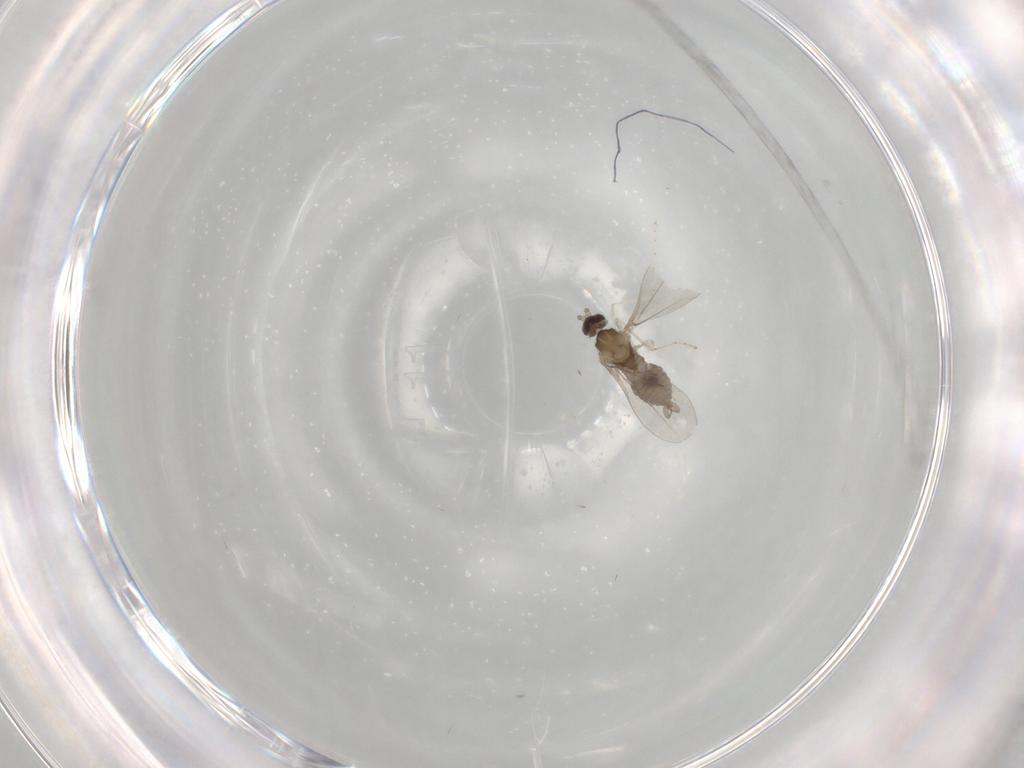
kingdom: Animalia
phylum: Arthropoda
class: Insecta
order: Diptera
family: Cecidomyiidae
